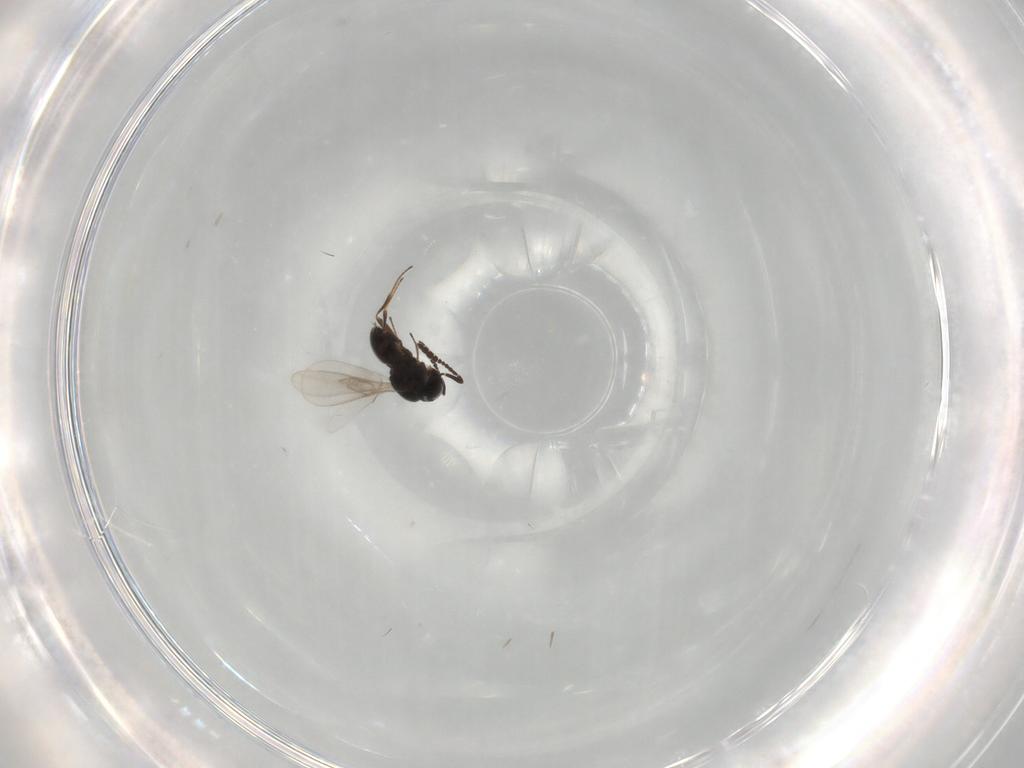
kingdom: Animalia
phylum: Arthropoda
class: Insecta
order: Hymenoptera
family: Scelionidae
